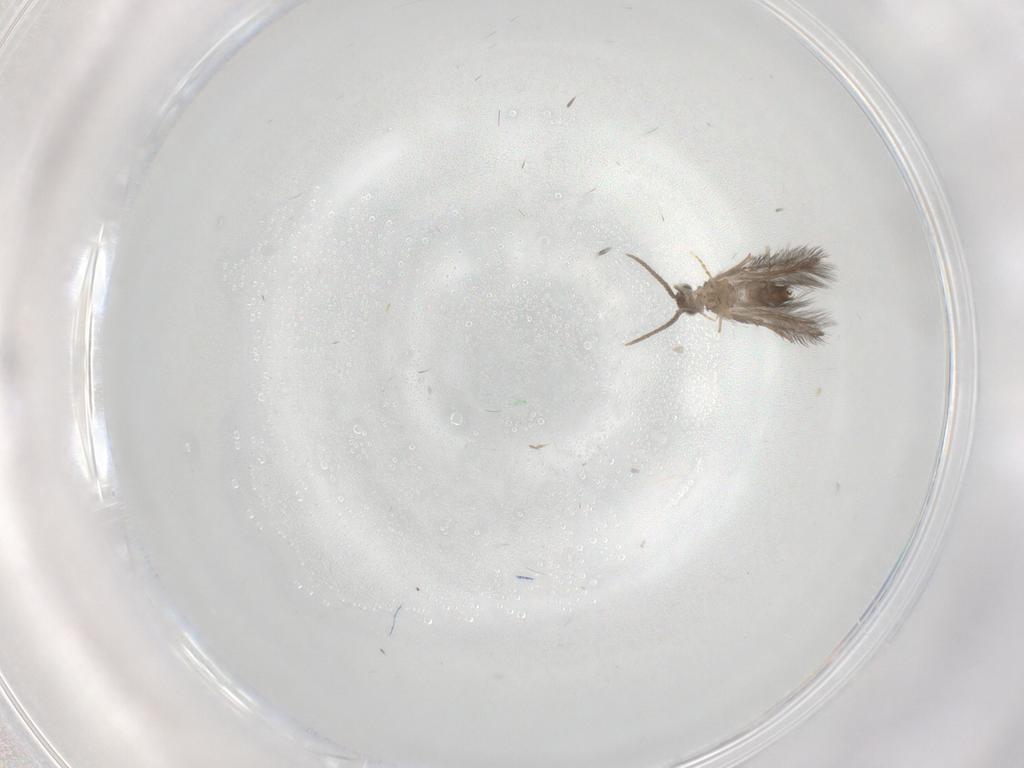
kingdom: Animalia
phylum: Arthropoda
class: Insecta
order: Trichoptera
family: Hydroptilidae
